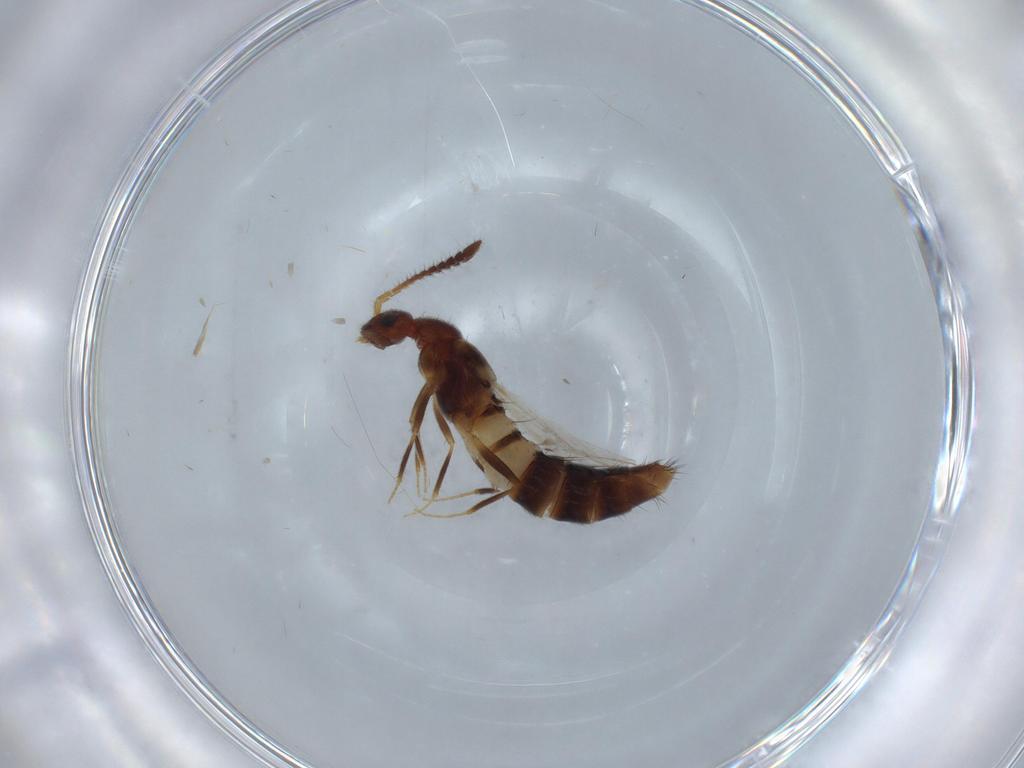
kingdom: Animalia
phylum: Arthropoda
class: Insecta
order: Coleoptera
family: Staphylinidae
